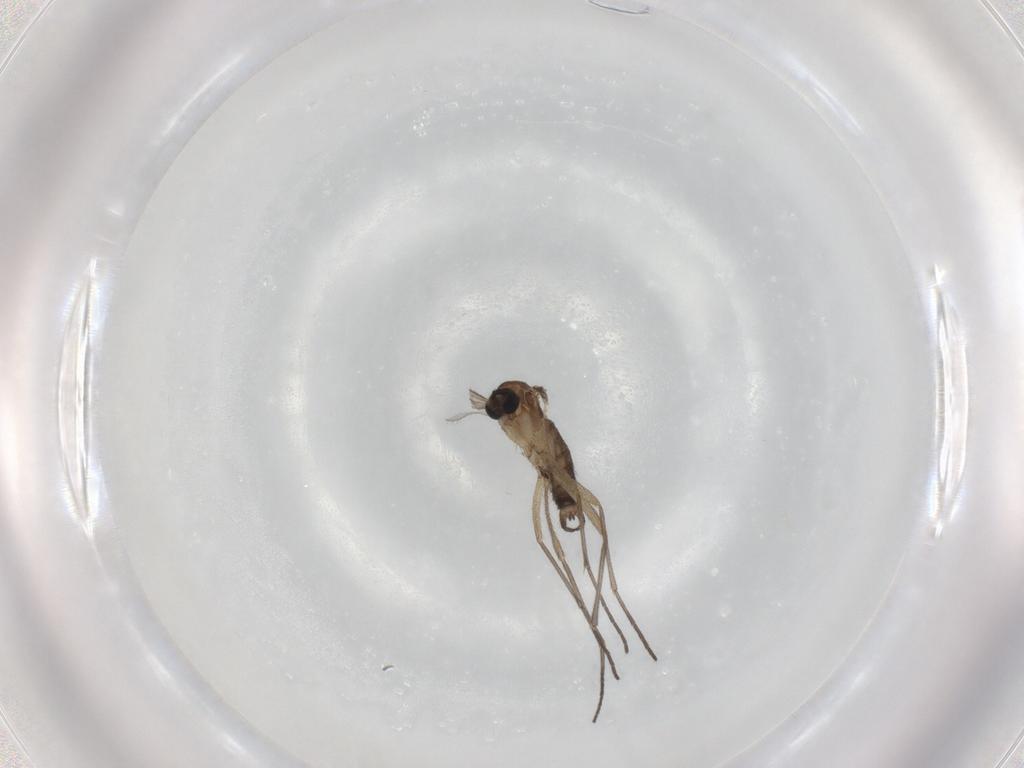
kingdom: Animalia
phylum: Arthropoda
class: Insecta
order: Diptera
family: Sciaridae
